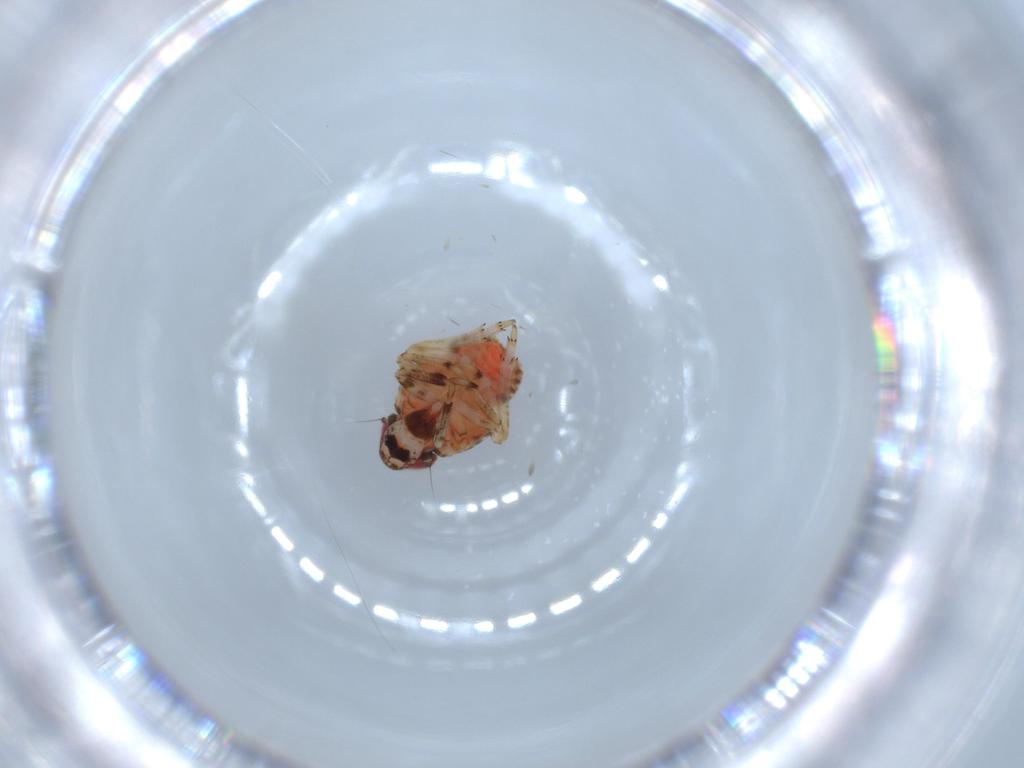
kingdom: Animalia
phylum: Arthropoda
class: Insecta
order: Hemiptera
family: Issidae
